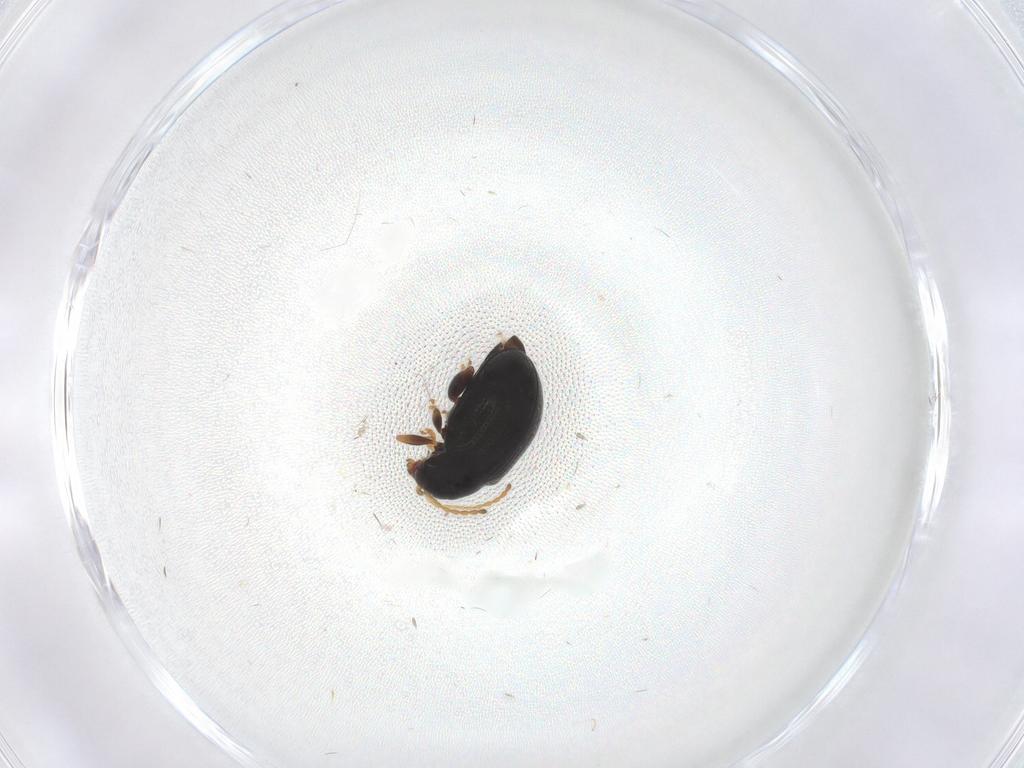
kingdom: Animalia
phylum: Arthropoda
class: Insecta
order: Coleoptera
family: Chrysomelidae
